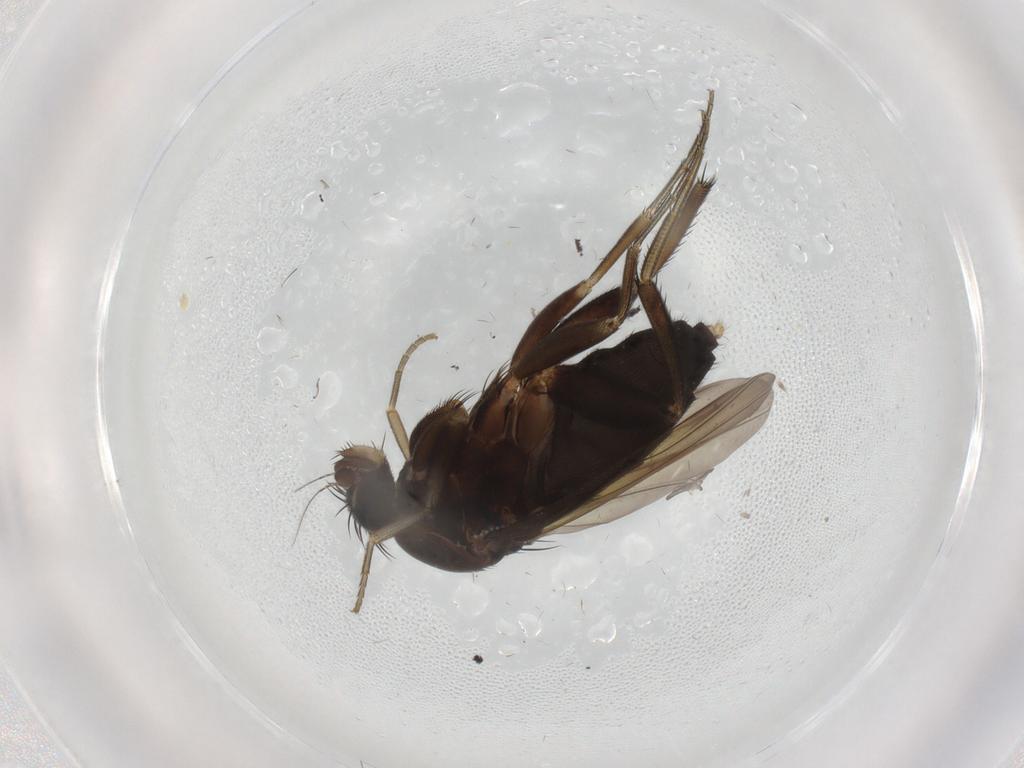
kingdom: Animalia
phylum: Arthropoda
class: Insecta
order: Diptera
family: Phoridae
